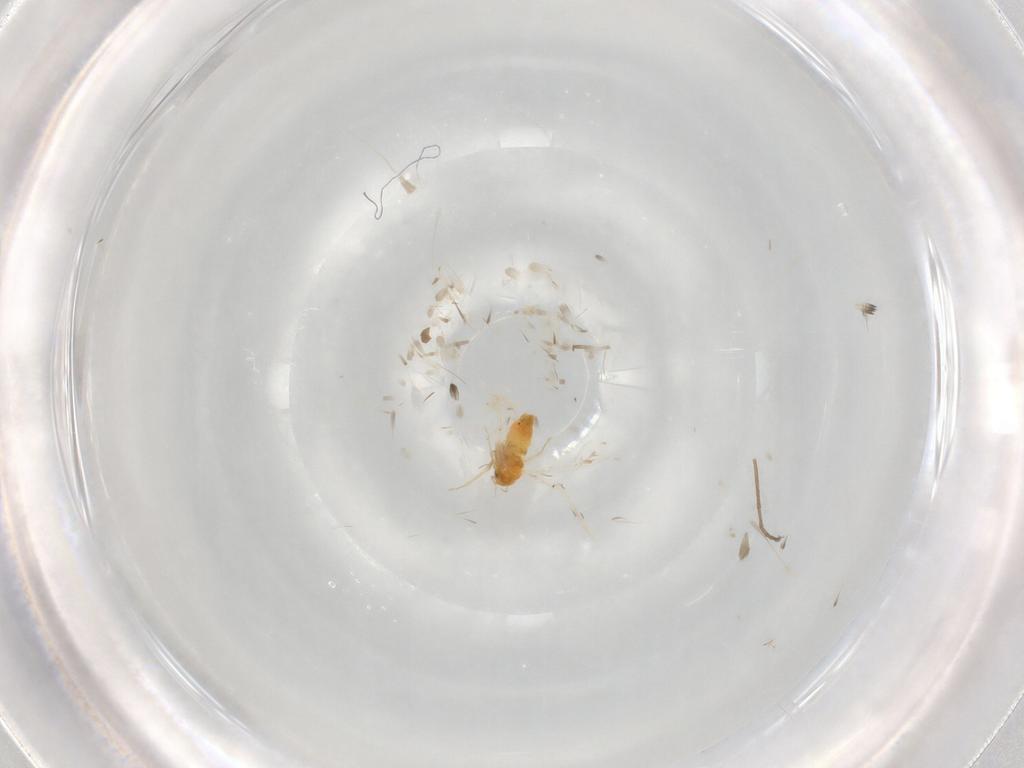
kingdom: Animalia
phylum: Arthropoda
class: Insecta
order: Hemiptera
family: Aleyrodidae
